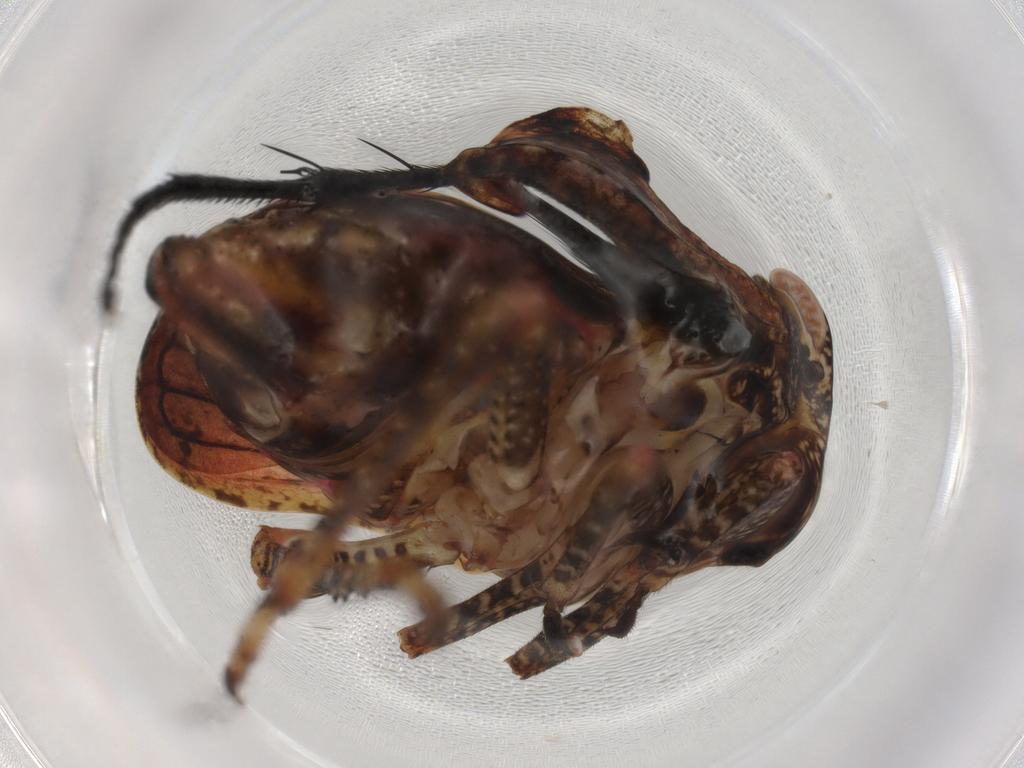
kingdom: Animalia
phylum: Arthropoda
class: Insecta
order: Hemiptera
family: Tropiduchidae
